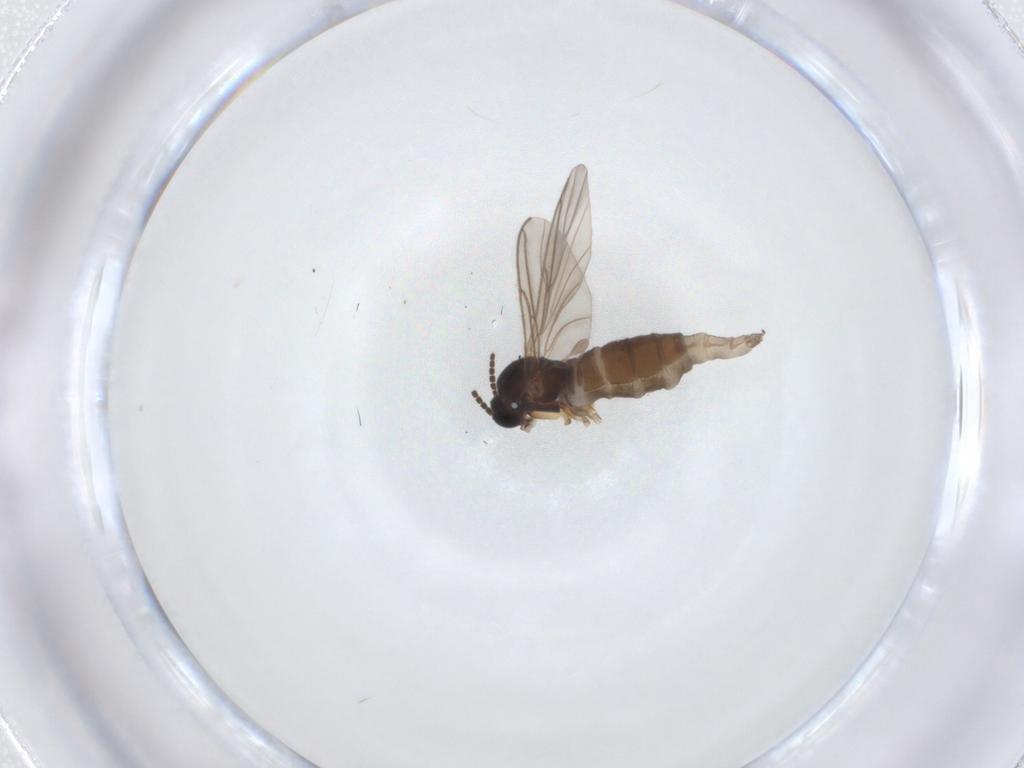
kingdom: Animalia
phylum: Arthropoda
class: Insecta
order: Diptera
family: Sciaridae
